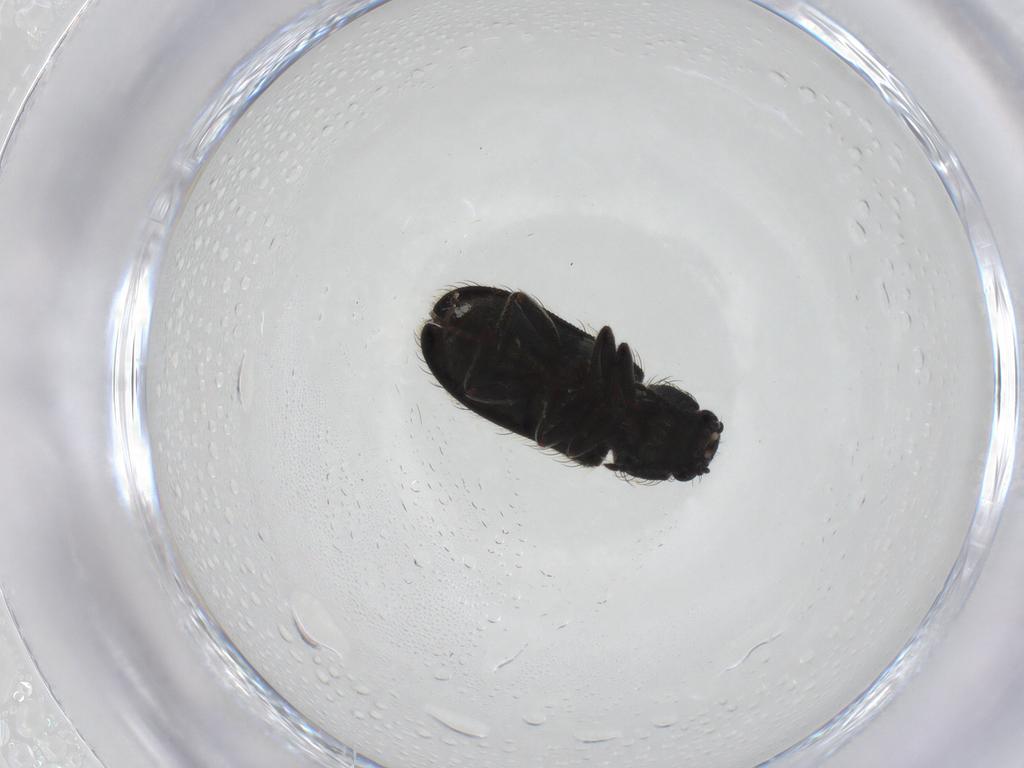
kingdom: Animalia
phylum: Arthropoda
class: Insecta
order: Coleoptera
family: Melyridae
